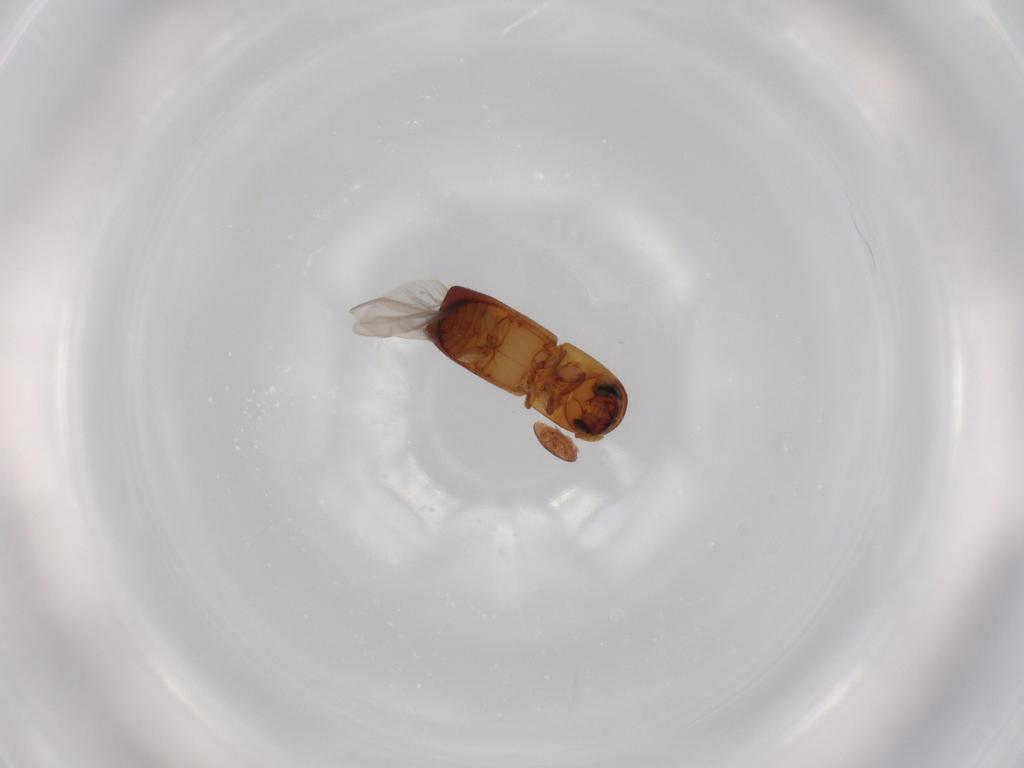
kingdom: Animalia
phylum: Arthropoda
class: Insecta
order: Coleoptera
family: Curculionidae
